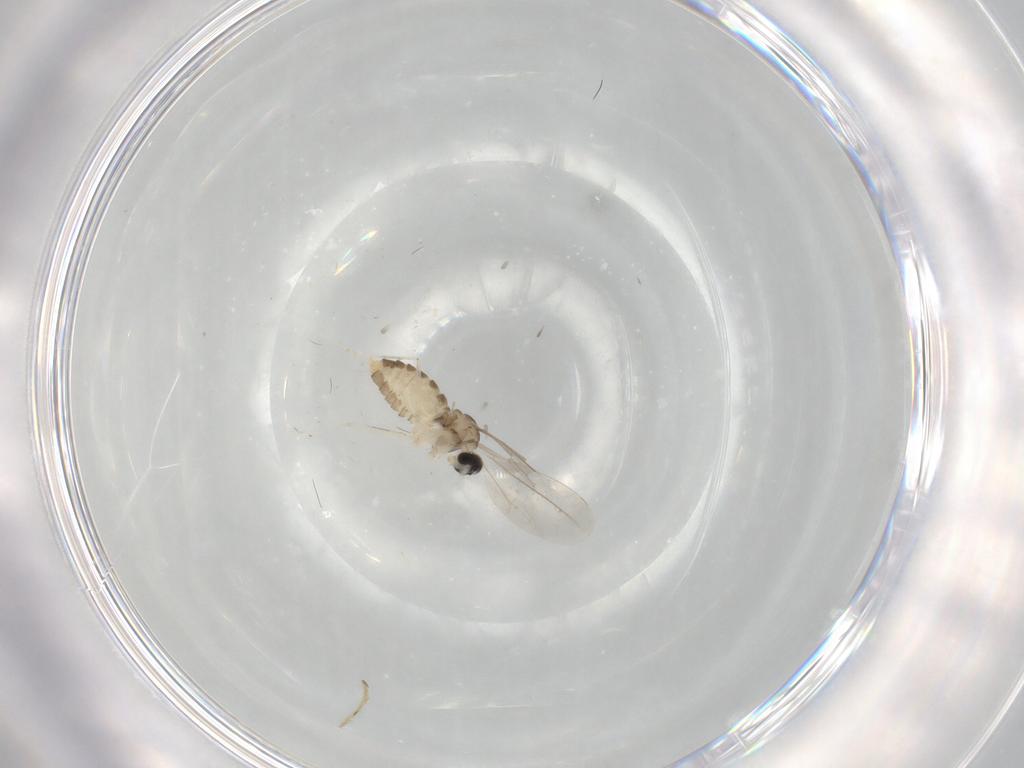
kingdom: Animalia
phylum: Arthropoda
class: Insecta
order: Diptera
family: Cecidomyiidae
